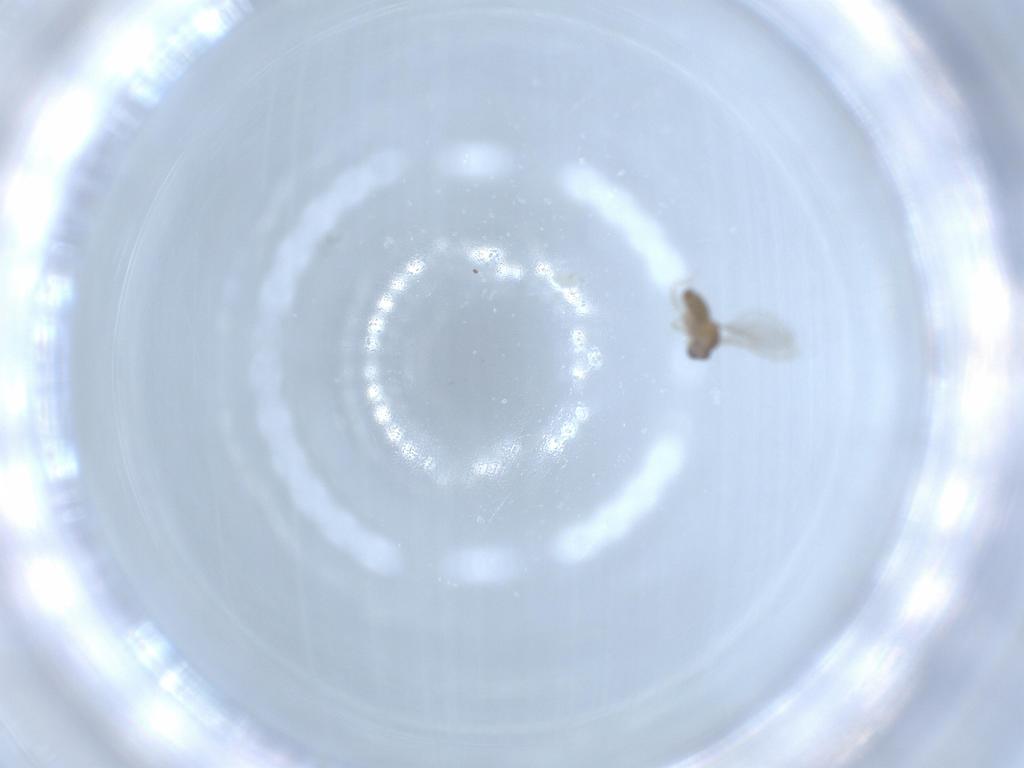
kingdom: Animalia
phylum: Arthropoda
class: Insecta
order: Diptera
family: Cecidomyiidae
